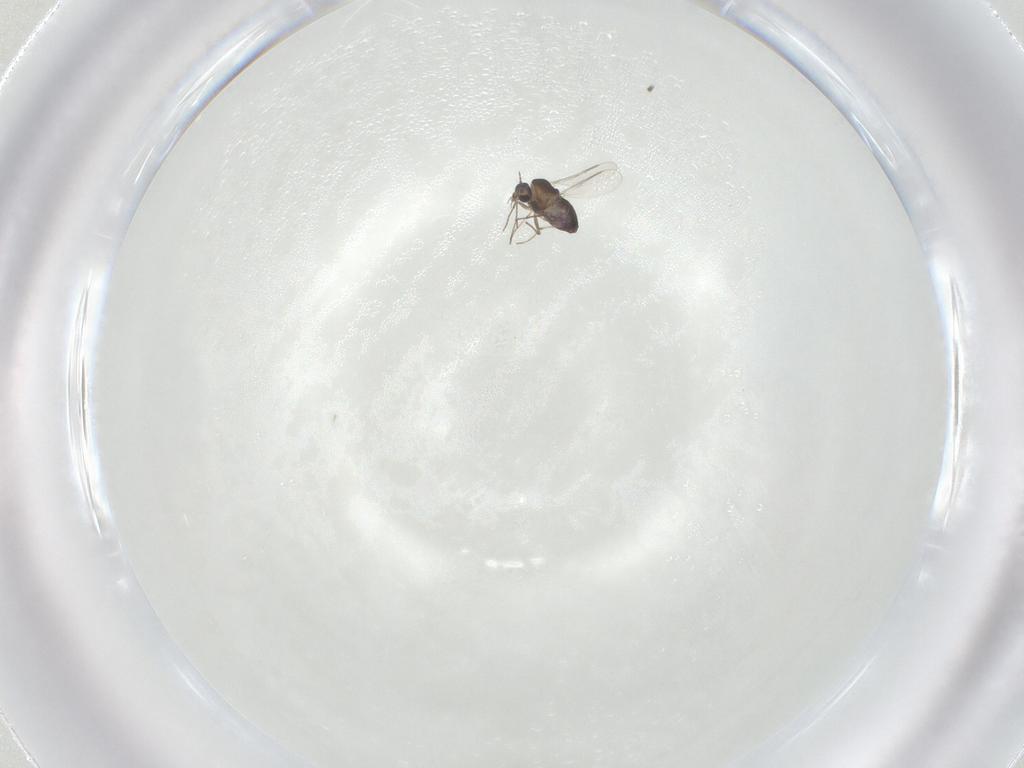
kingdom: Animalia
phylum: Arthropoda
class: Insecta
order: Diptera
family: Chironomidae
